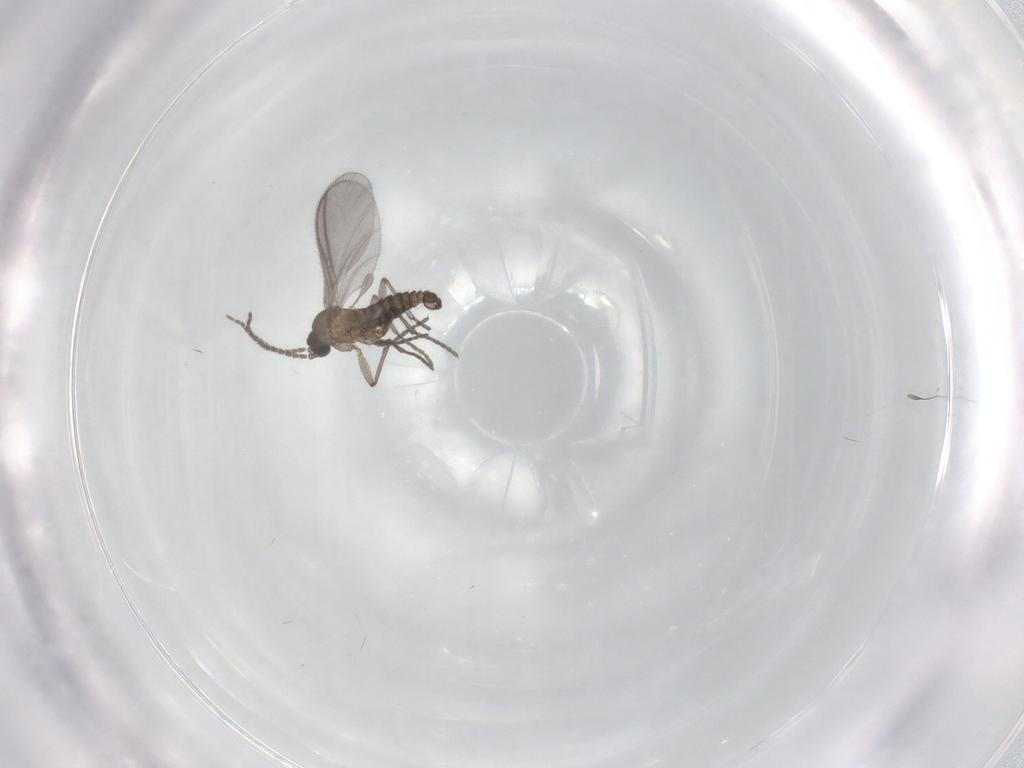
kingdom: Animalia
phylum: Arthropoda
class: Insecta
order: Diptera
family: Sciaridae
